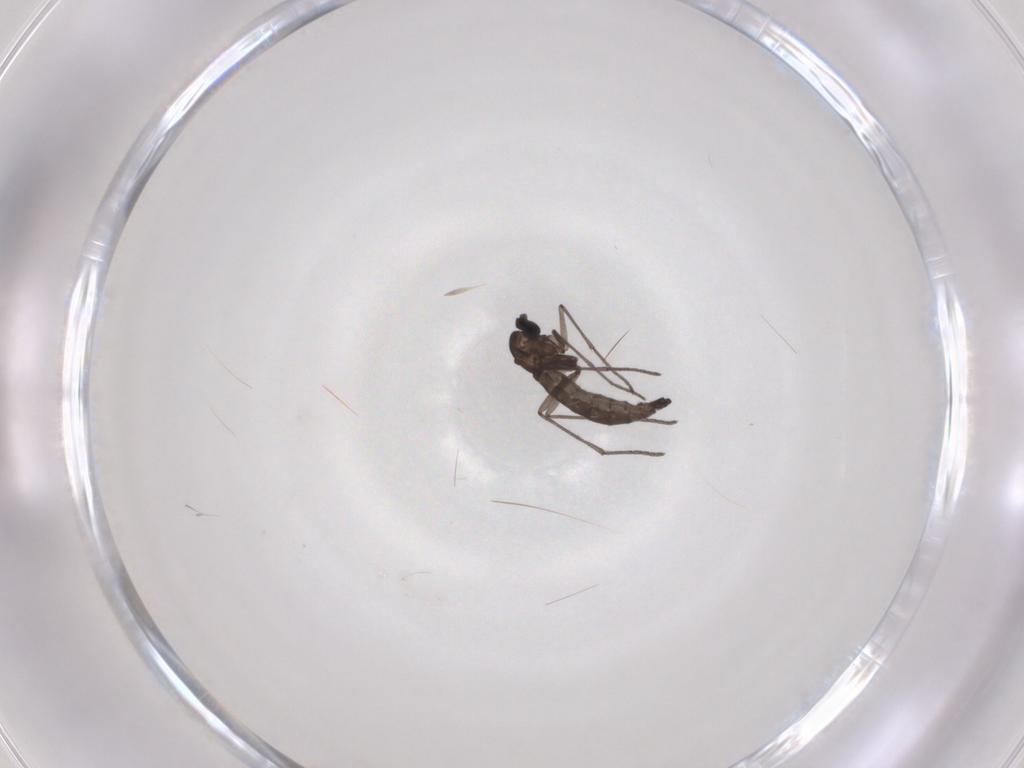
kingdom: Animalia
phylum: Arthropoda
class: Insecta
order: Diptera
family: Sciaridae
